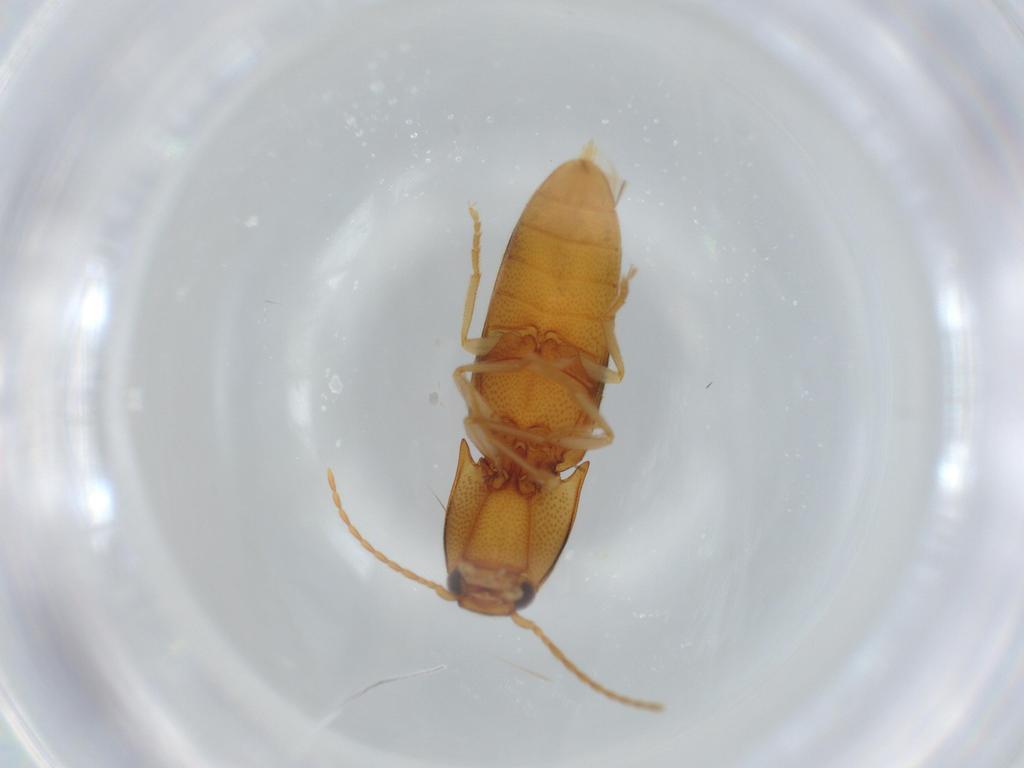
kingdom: Animalia
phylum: Arthropoda
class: Insecta
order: Coleoptera
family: Elateridae
